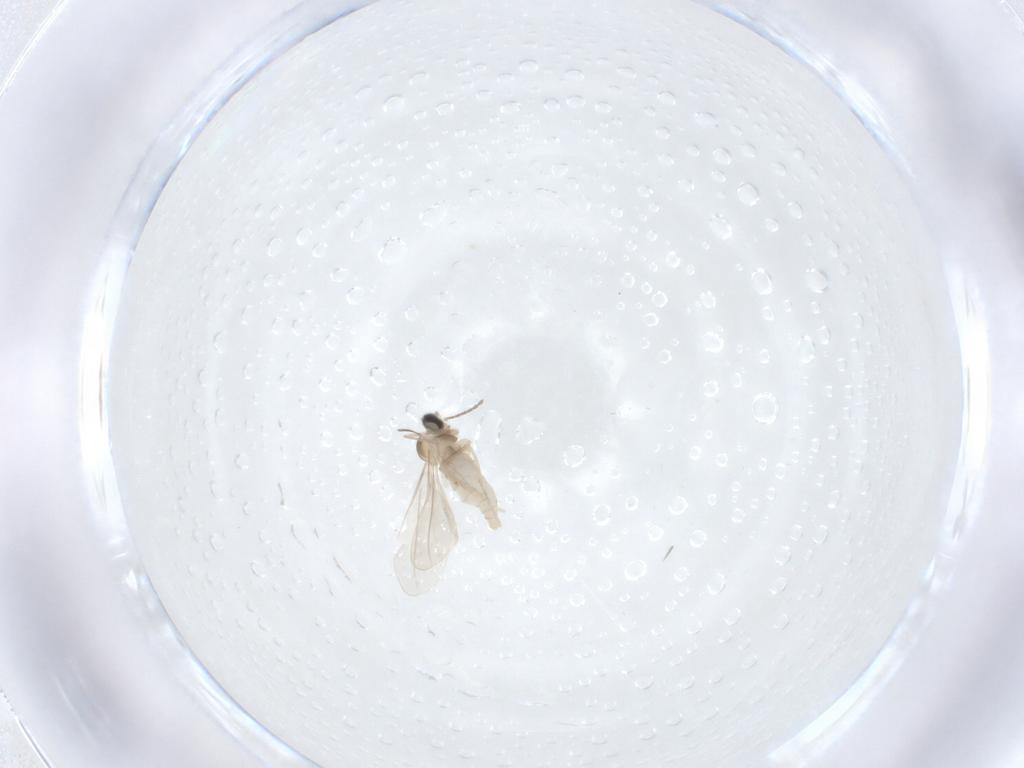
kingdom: Animalia
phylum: Arthropoda
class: Insecta
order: Diptera
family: Cecidomyiidae
